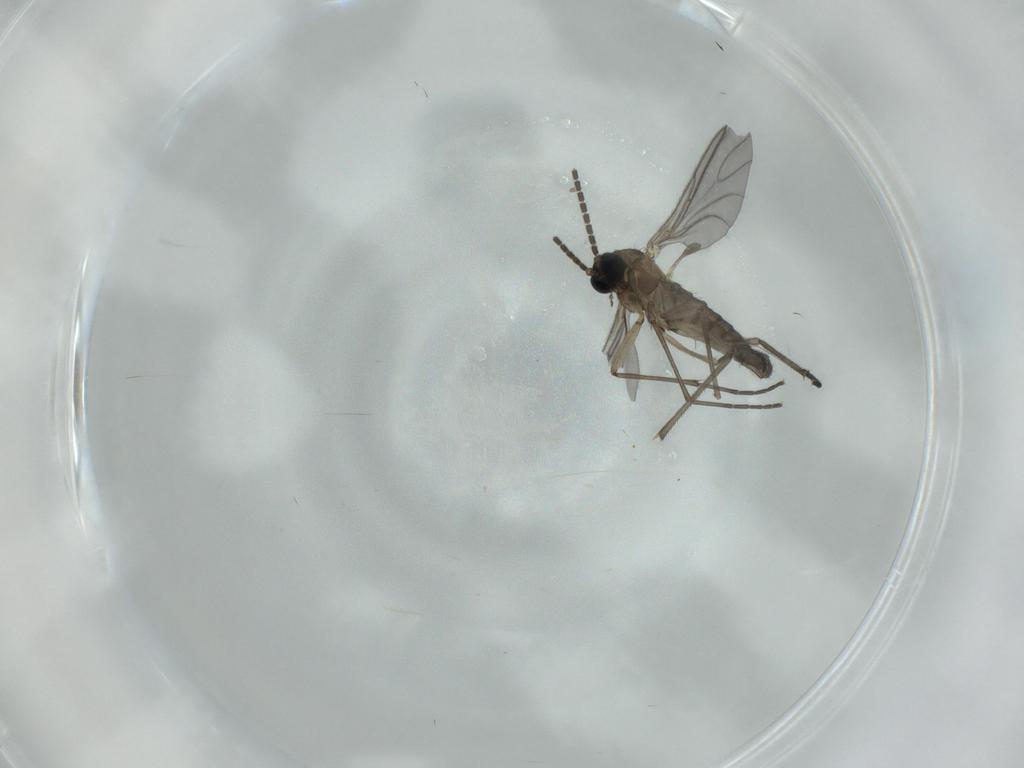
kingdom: Animalia
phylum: Arthropoda
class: Insecta
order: Diptera
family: Sciaridae
